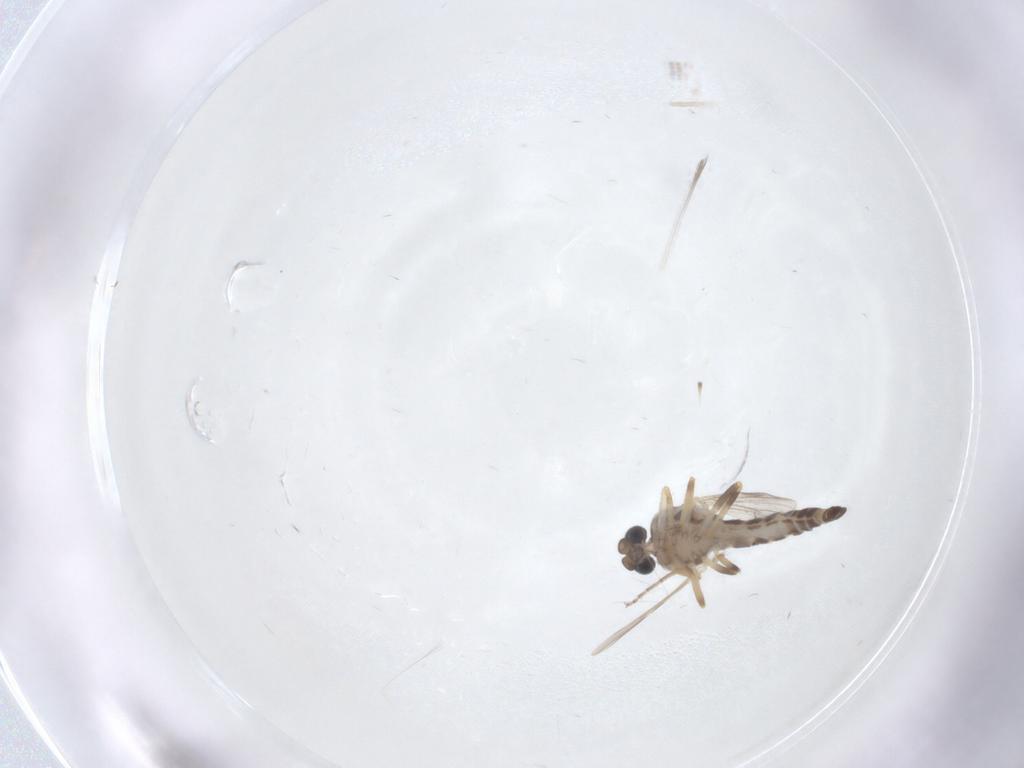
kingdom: Animalia
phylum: Arthropoda
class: Insecta
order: Diptera
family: Ceratopogonidae
